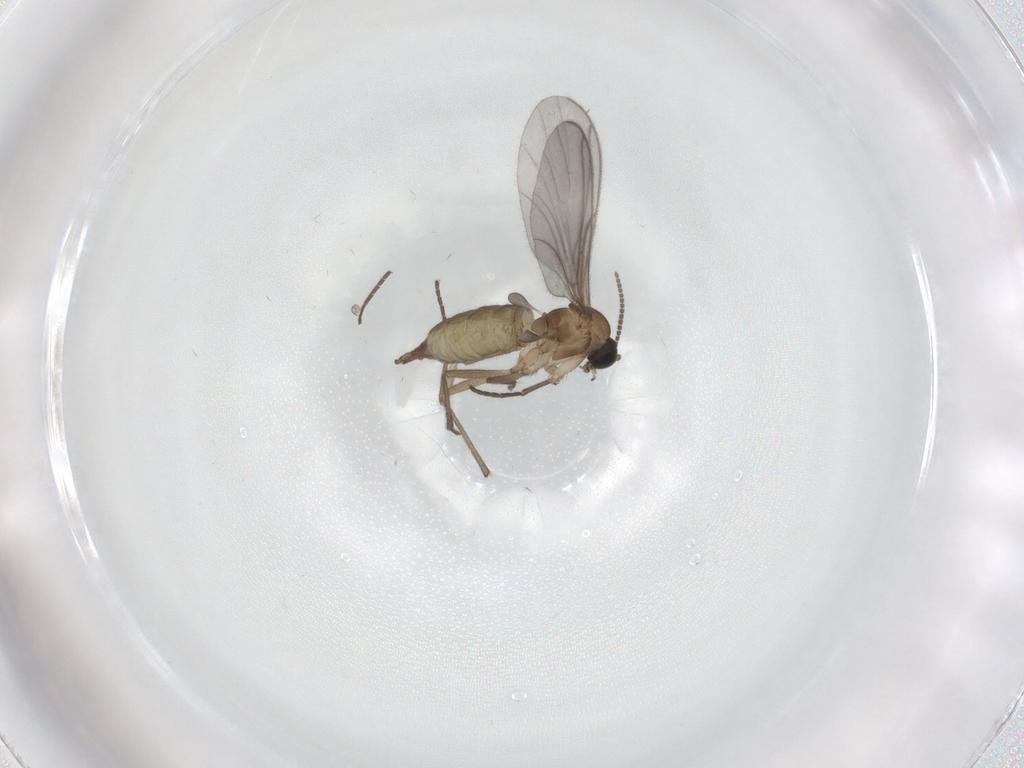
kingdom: Animalia
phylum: Arthropoda
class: Insecta
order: Diptera
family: Sciaridae
